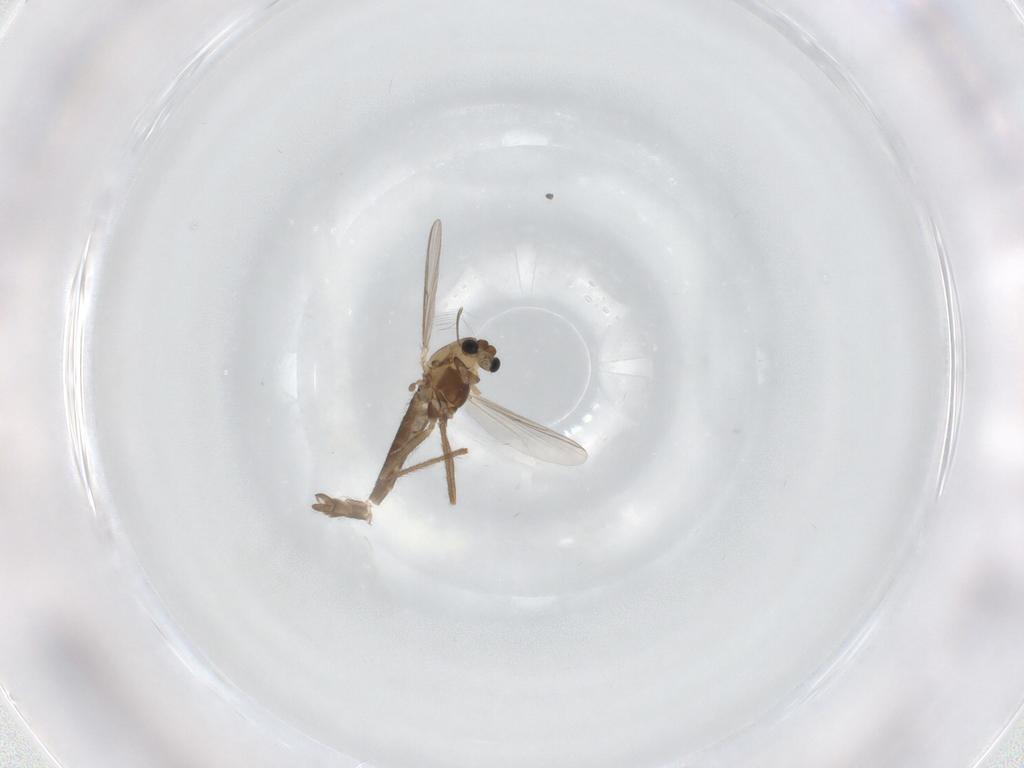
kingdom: Animalia
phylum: Arthropoda
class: Insecta
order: Diptera
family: Chironomidae
